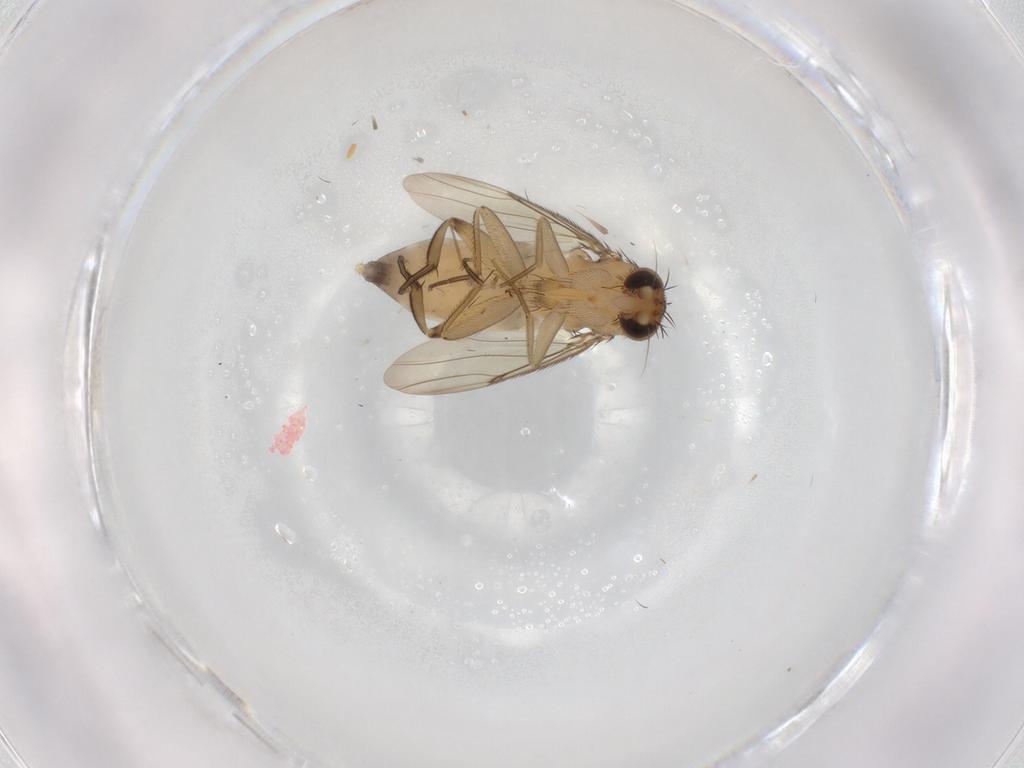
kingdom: Animalia
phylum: Arthropoda
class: Insecta
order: Diptera
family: Phoridae
